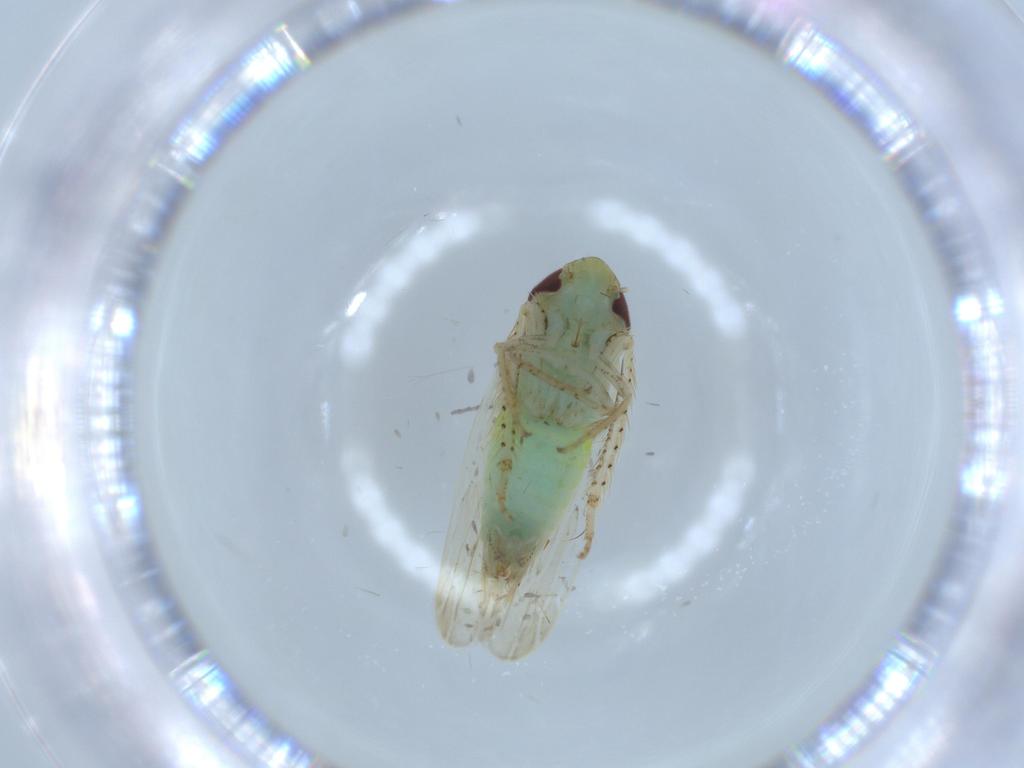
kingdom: Animalia
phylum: Arthropoda
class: Insecta
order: Hemiptera
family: Cicadellidae
